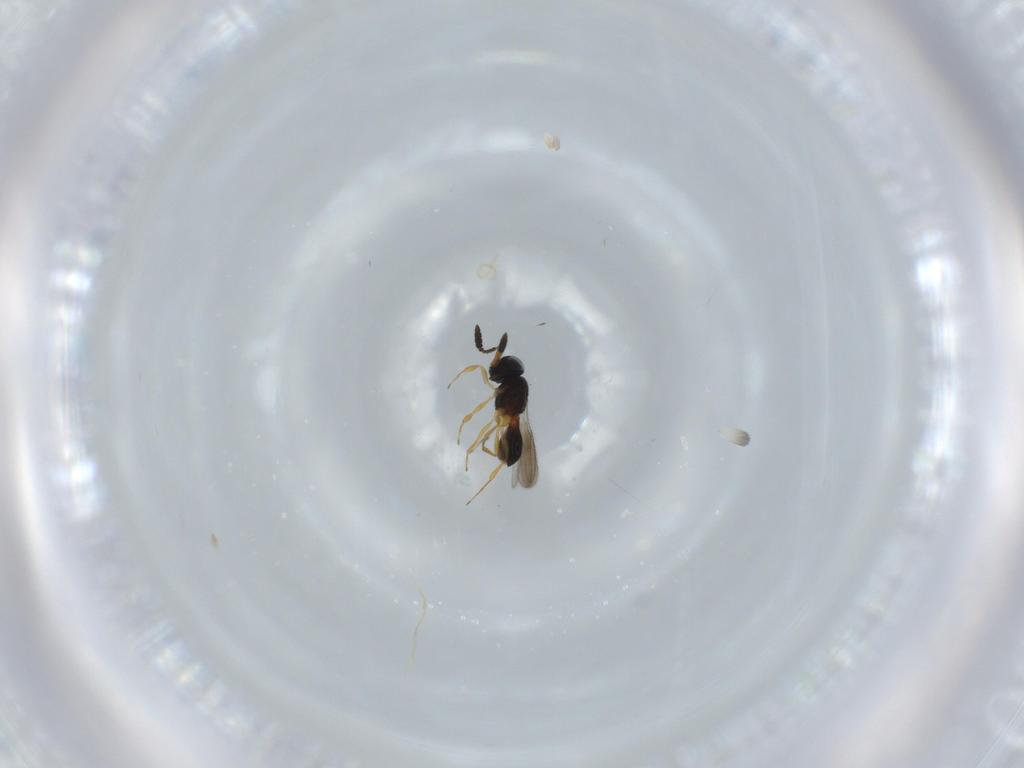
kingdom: Animalia
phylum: Arthropoda
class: Insecta
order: Hymenoptera
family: Scelionidae
